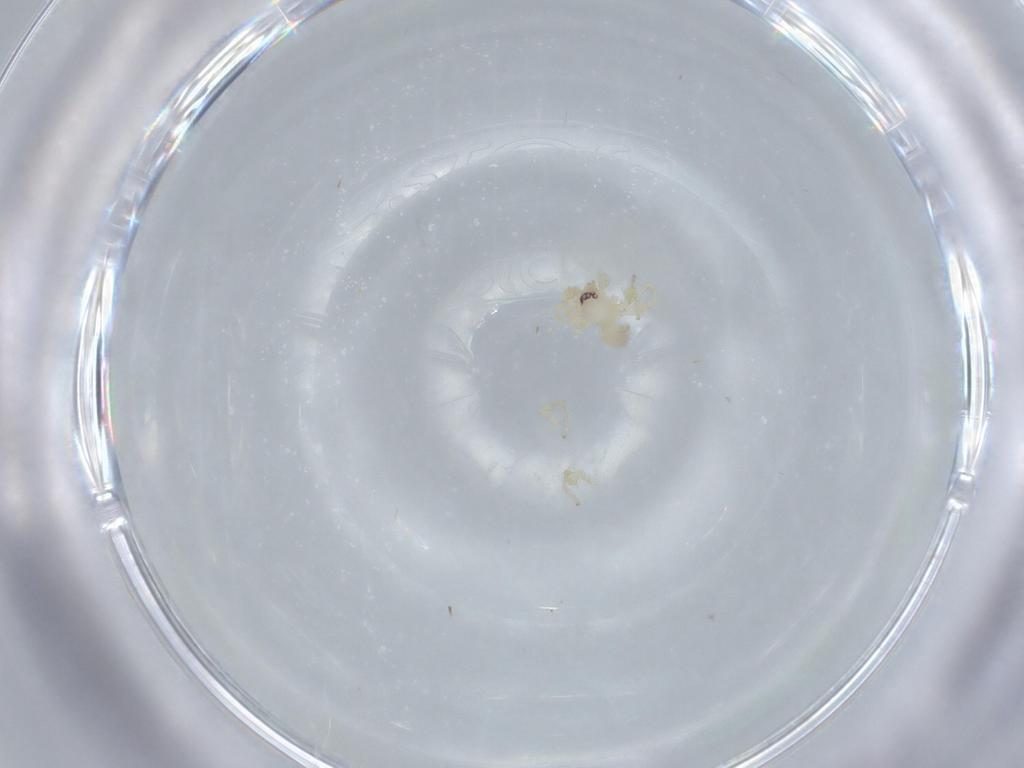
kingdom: Animalia
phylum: Arthropoda
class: Arachnida
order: Araneae
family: Oonopidae
